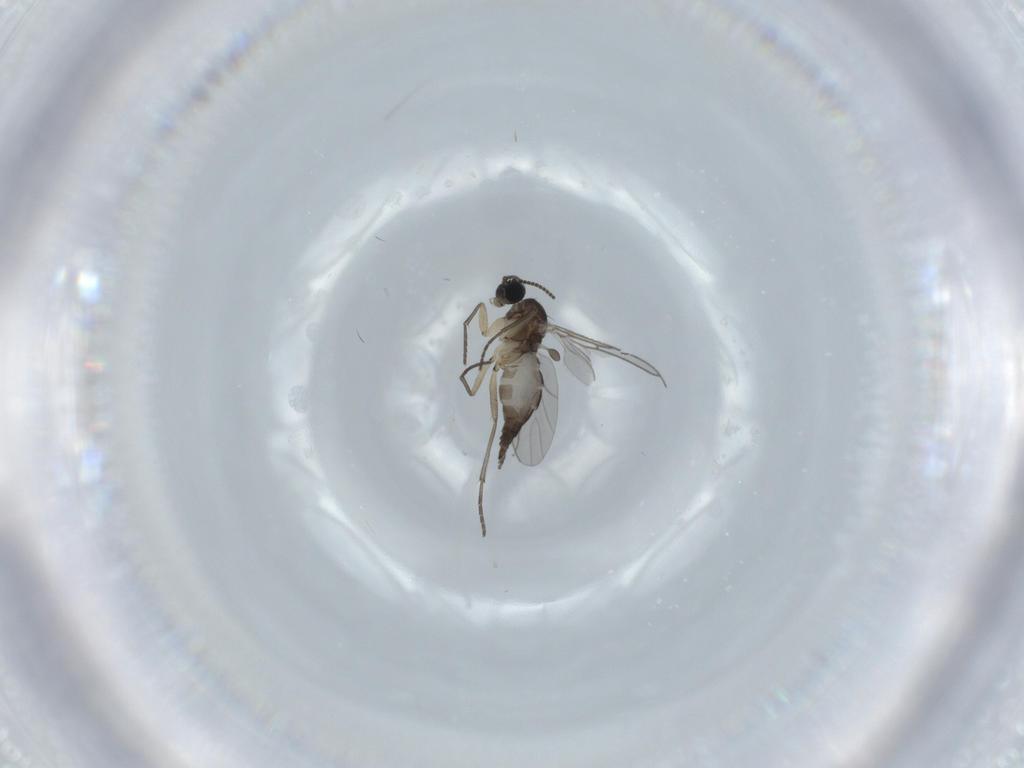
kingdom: Animalia
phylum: Arthropoda
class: Insecta
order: Diptera
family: Sciaridae
